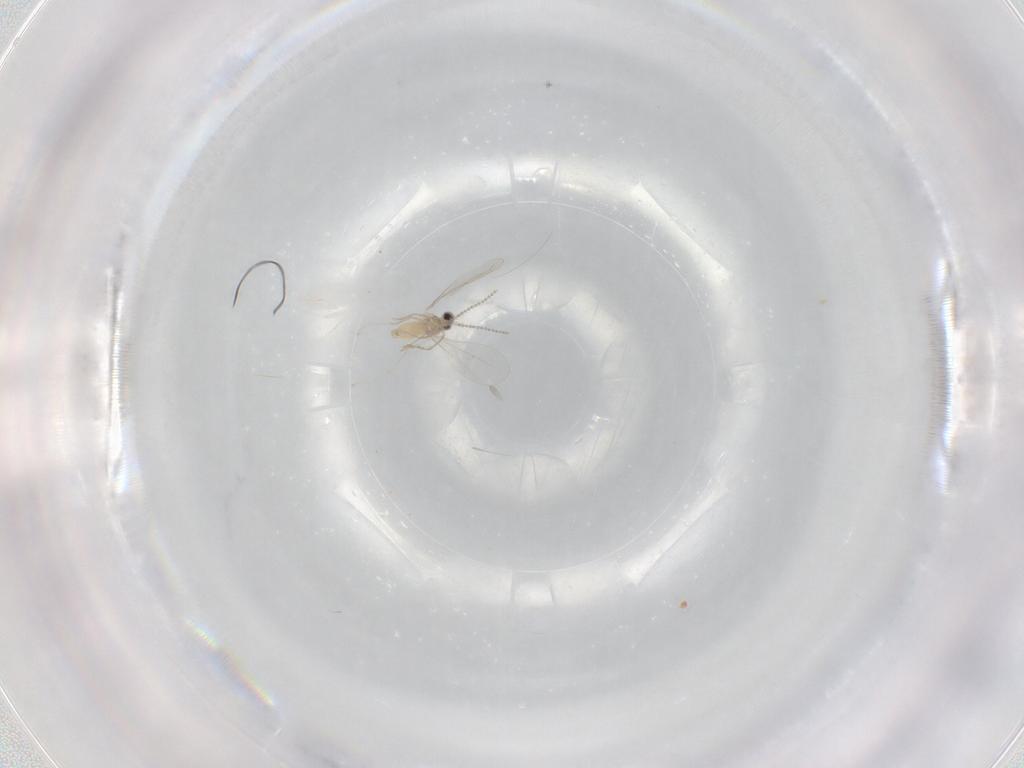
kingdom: Animalia
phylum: Arthropoda
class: Insecta
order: Diptera
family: Cecidomyiidae
